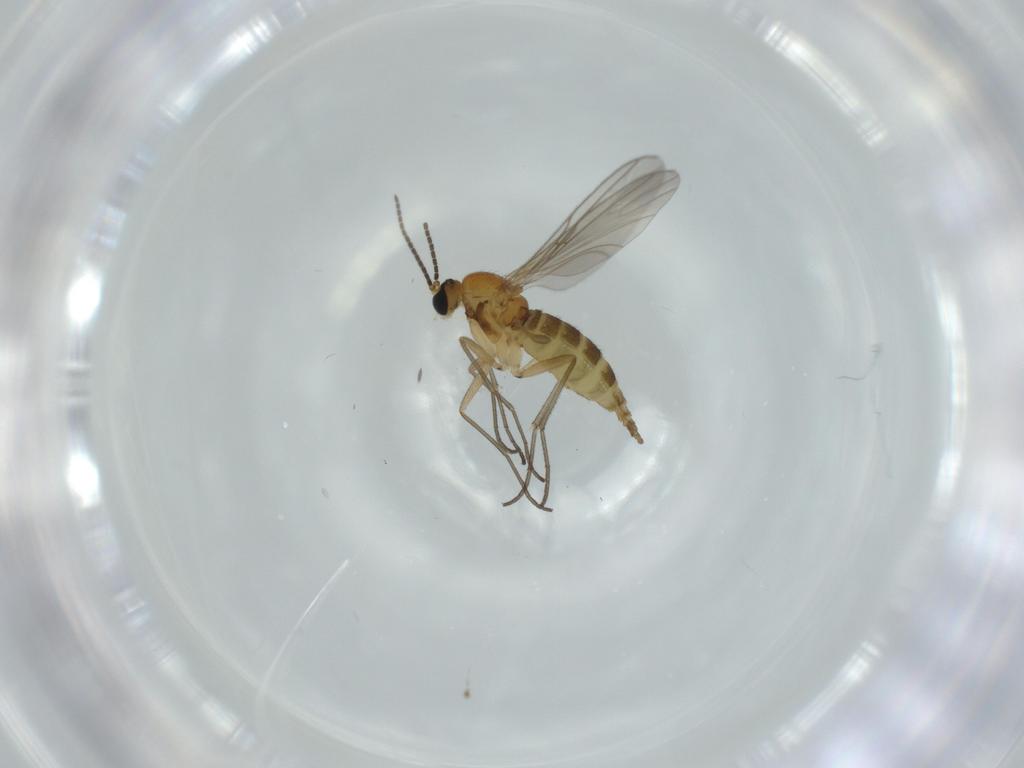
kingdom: Animalia
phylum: Arthropoda
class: Insecta
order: Diptera
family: Sciaridae
